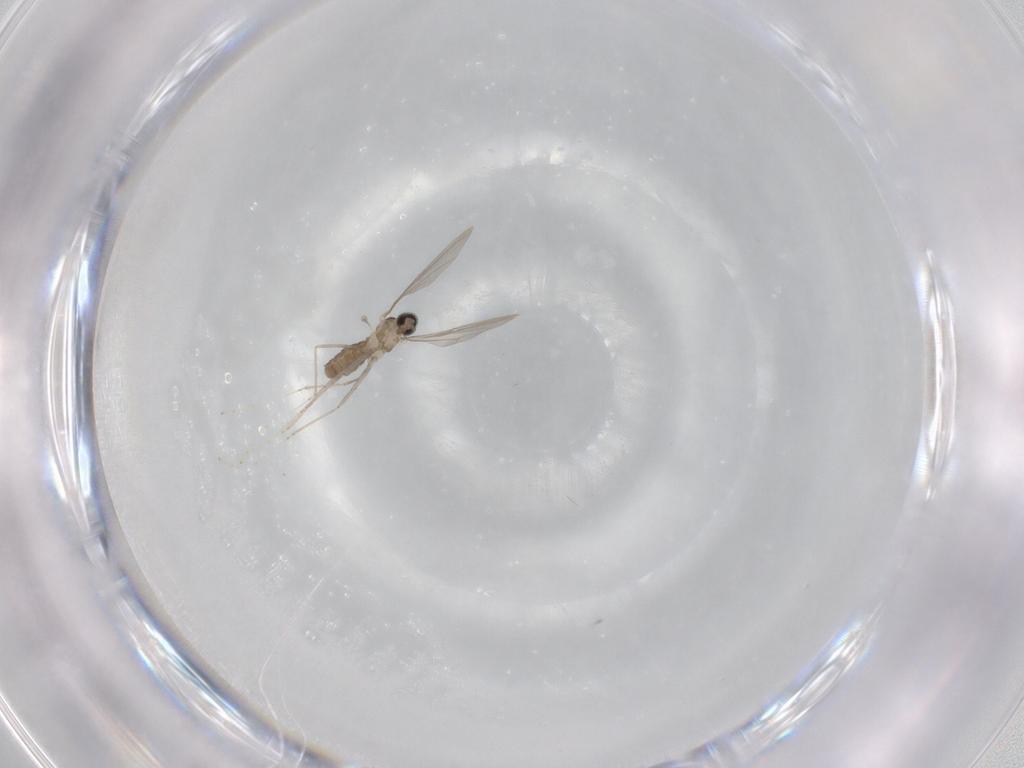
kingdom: Animalia
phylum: Arthropoda
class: Insecta
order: Diptera
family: Cecidomyiidae
